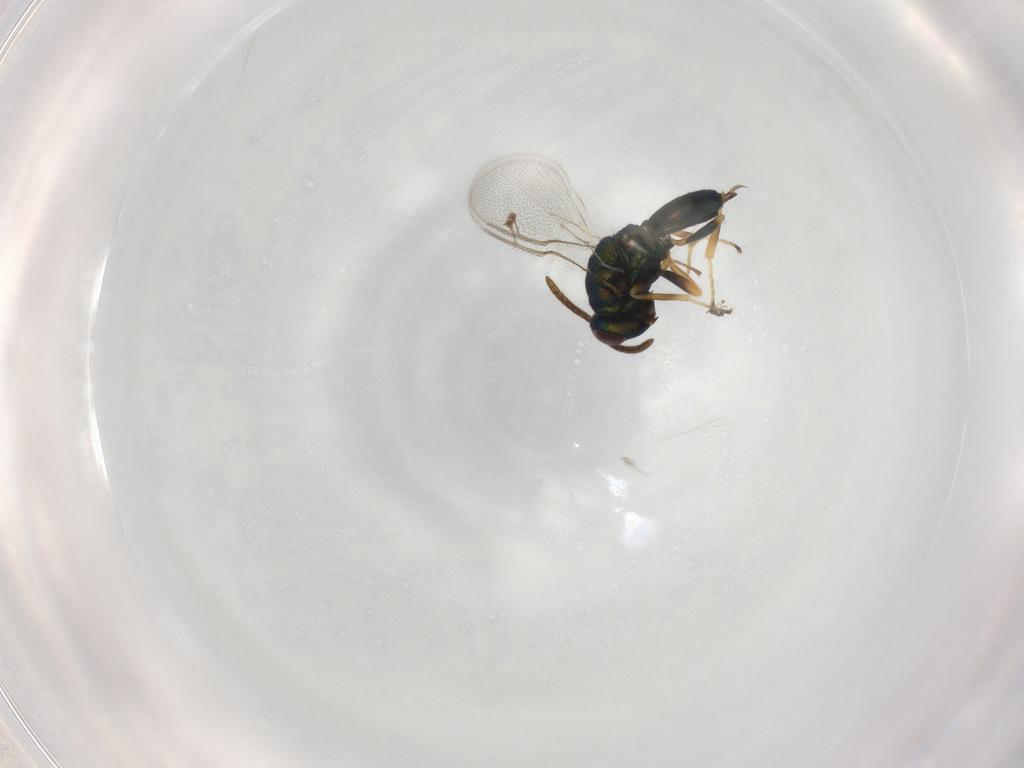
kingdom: Animalia
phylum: Arthropoda
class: Insecta
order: Hymenoptera
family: Pteromalidae
